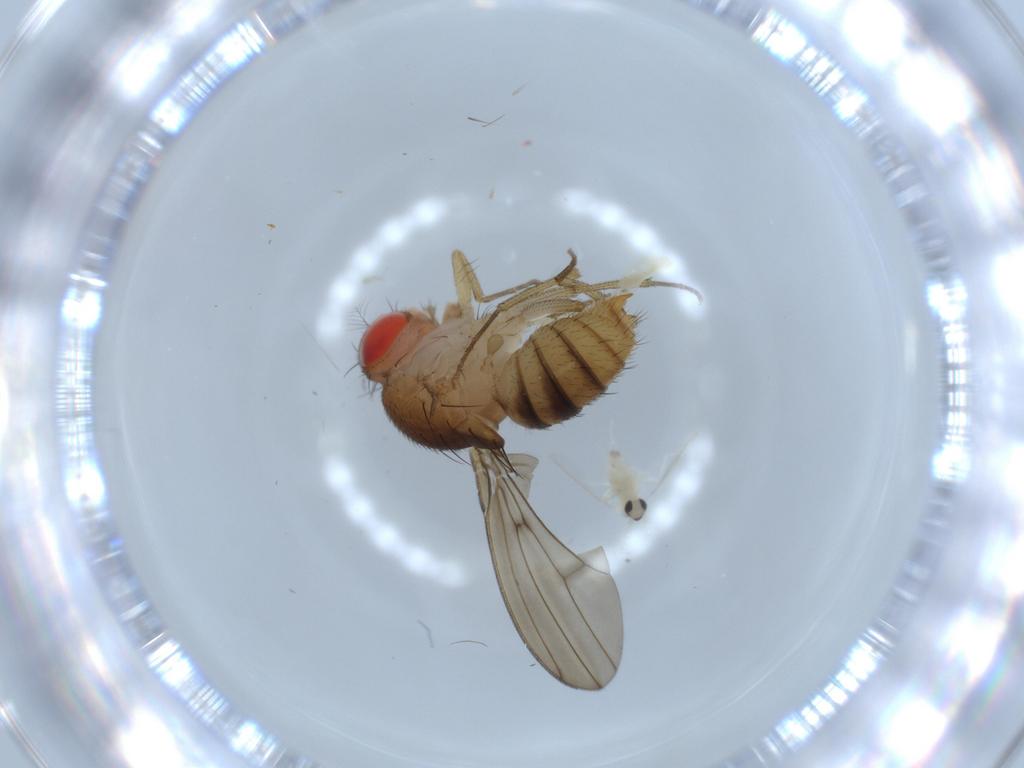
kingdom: Animalia
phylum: Arthropoda
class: Insecta
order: Diptera
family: Drosophilidae
